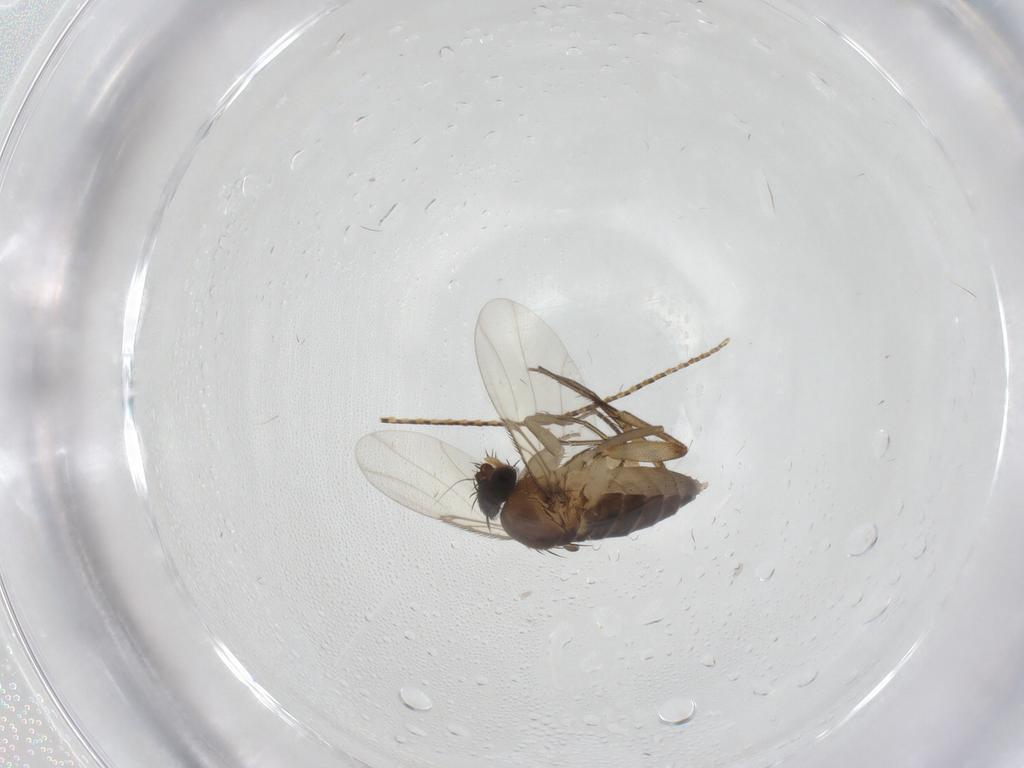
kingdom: Animalia
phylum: Arthropoda
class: Insecta
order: Diptera
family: Sciaridae
